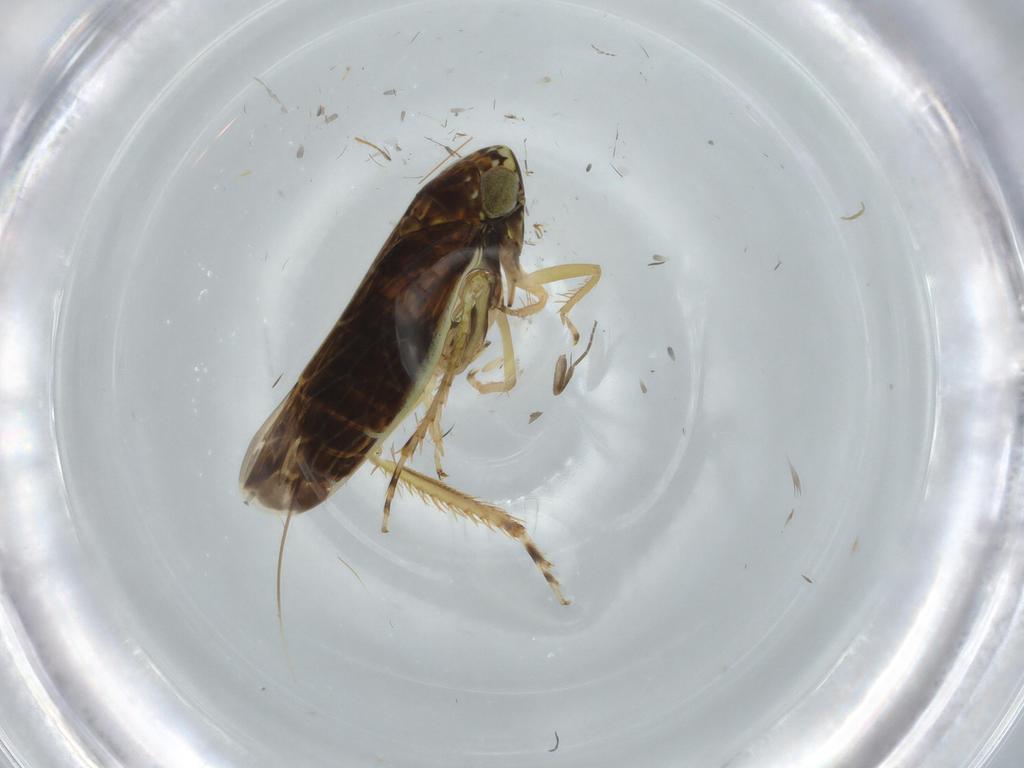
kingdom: Animalia
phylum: Arthropoda
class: Insecta
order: Hemiptera
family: Cicadellidae
